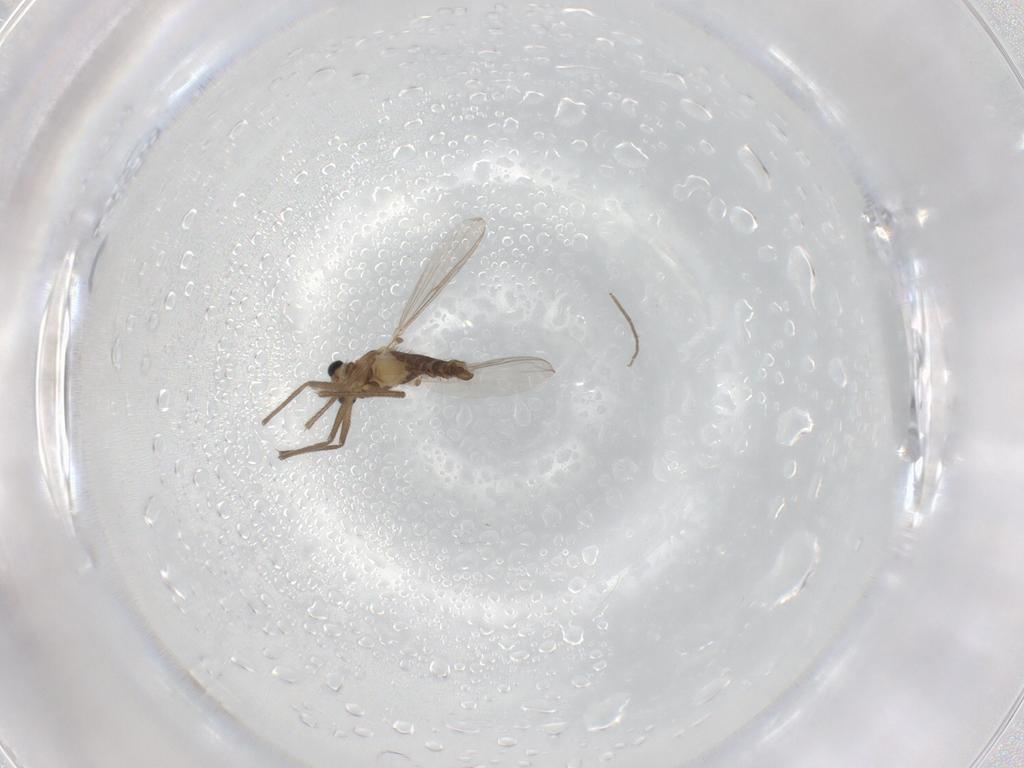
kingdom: Animalia
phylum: Arthropoda
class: Insecta
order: Diptera
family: Chironomidae
